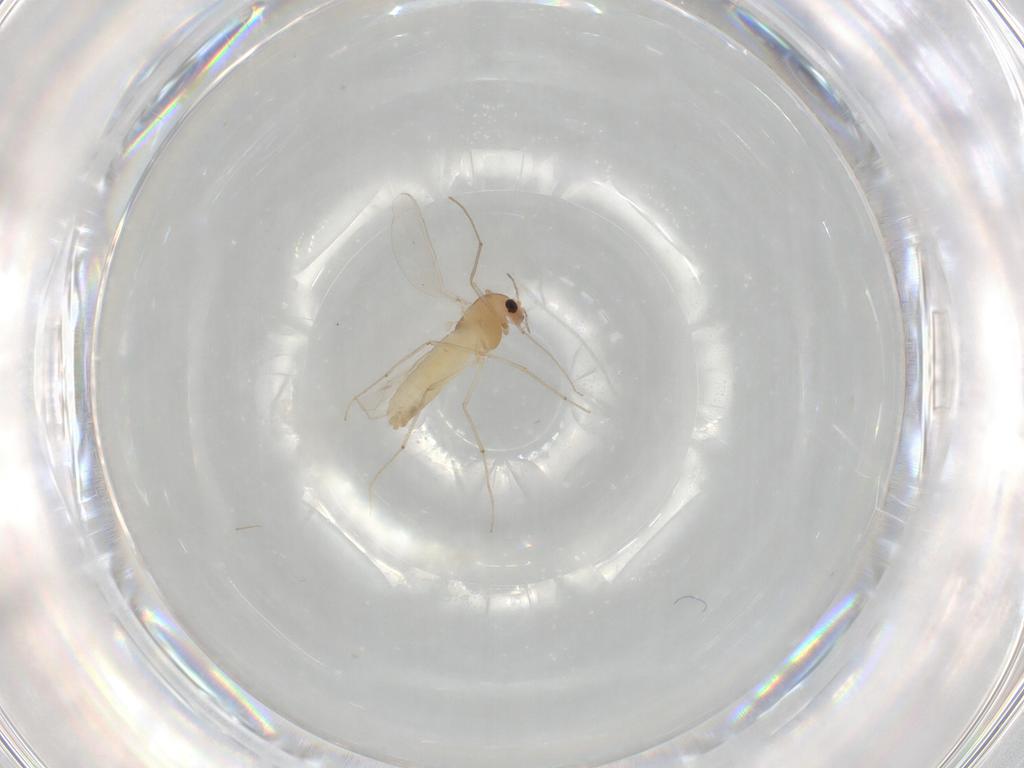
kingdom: Animalia
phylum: Arthropoda
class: Insecta
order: Diptera
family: Chironomidae
